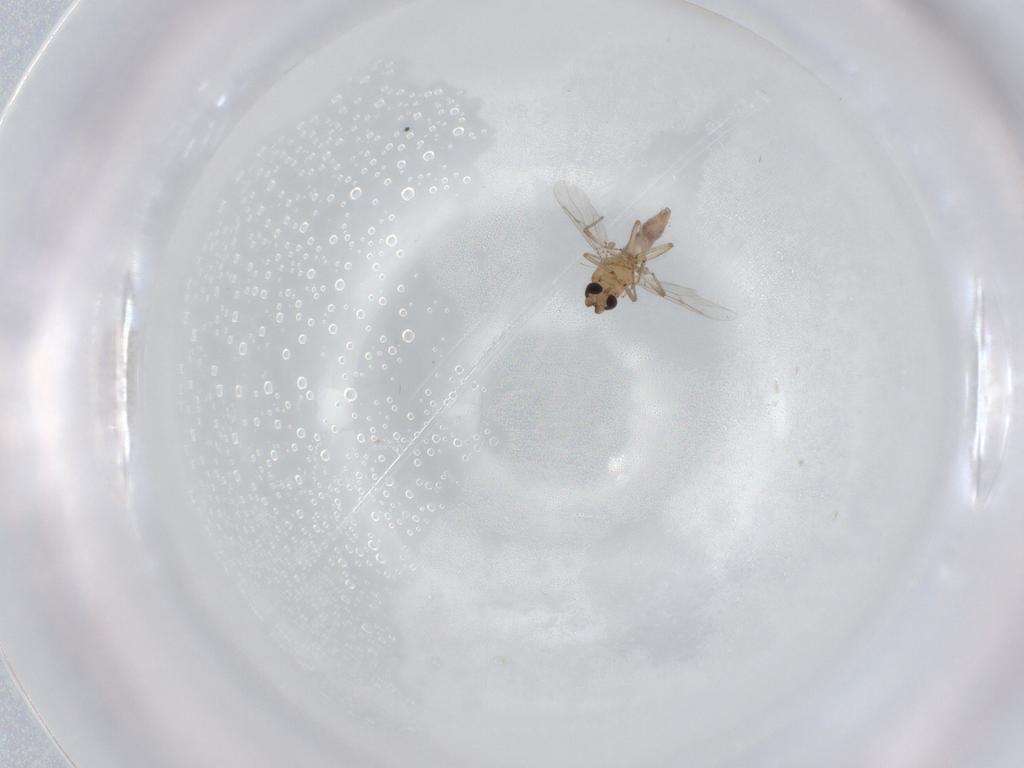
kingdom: Animalia
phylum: Arthropoda
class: Insecta
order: Diptera
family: Ceratopogonidae
